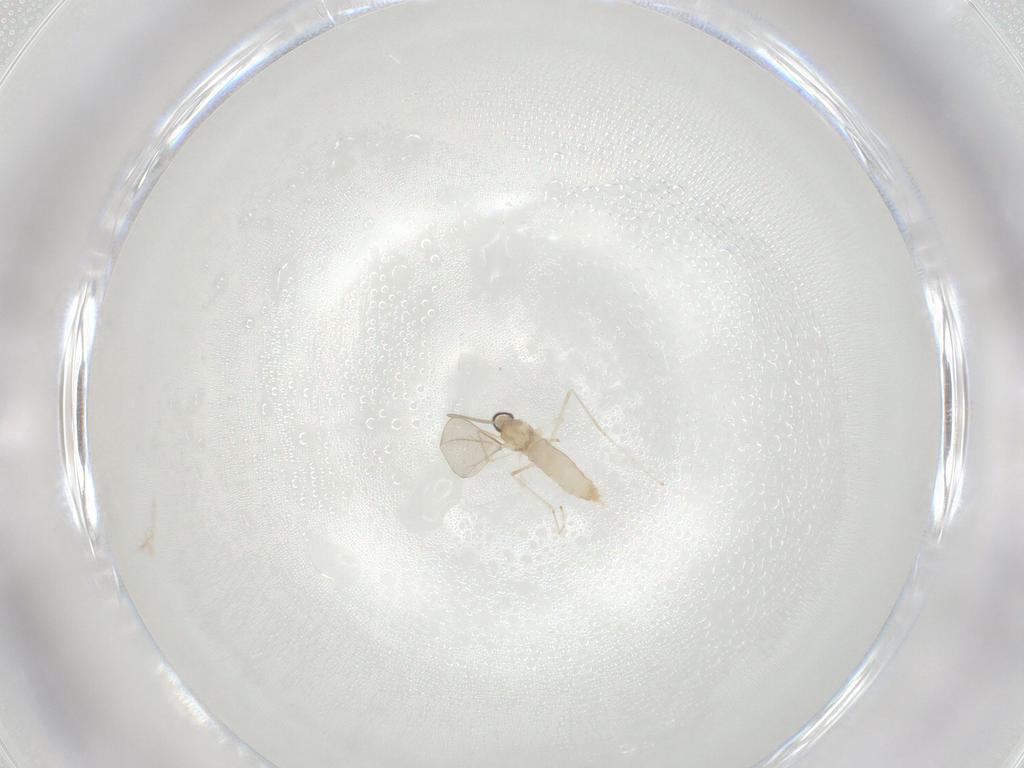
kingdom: Animalia
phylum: Arthropoda
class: Insecta
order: Diptera
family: Cecidomyiidae
